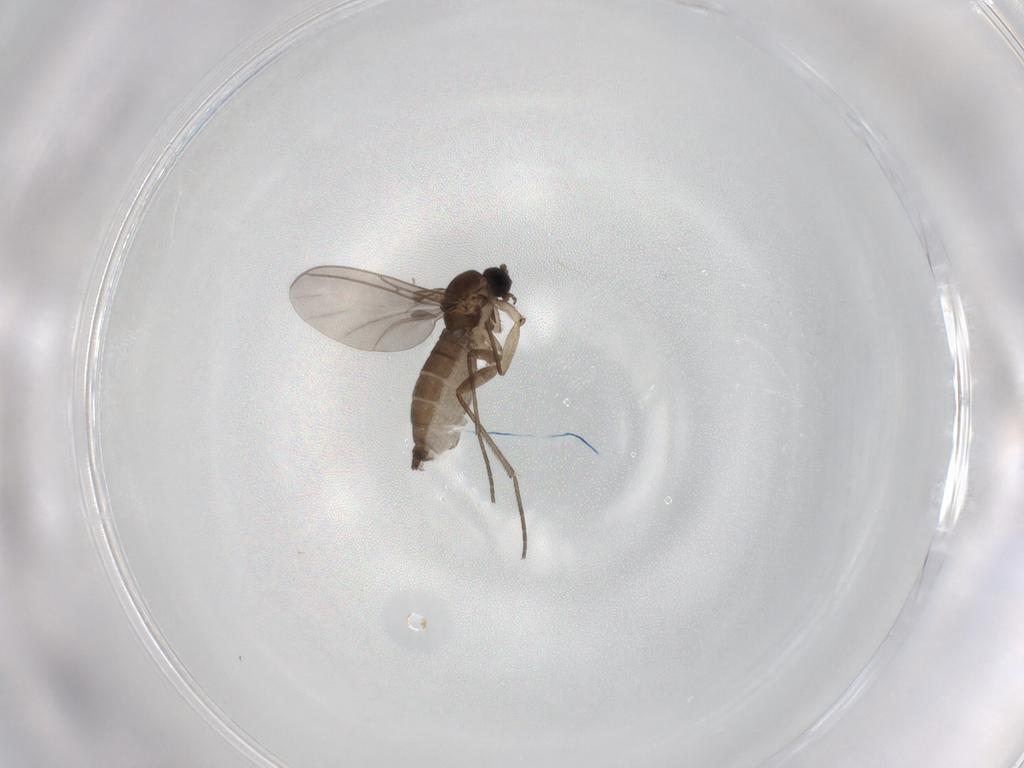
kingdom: Animalia
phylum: Arthropoda
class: Insecta
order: Diptera
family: Sciaridae
